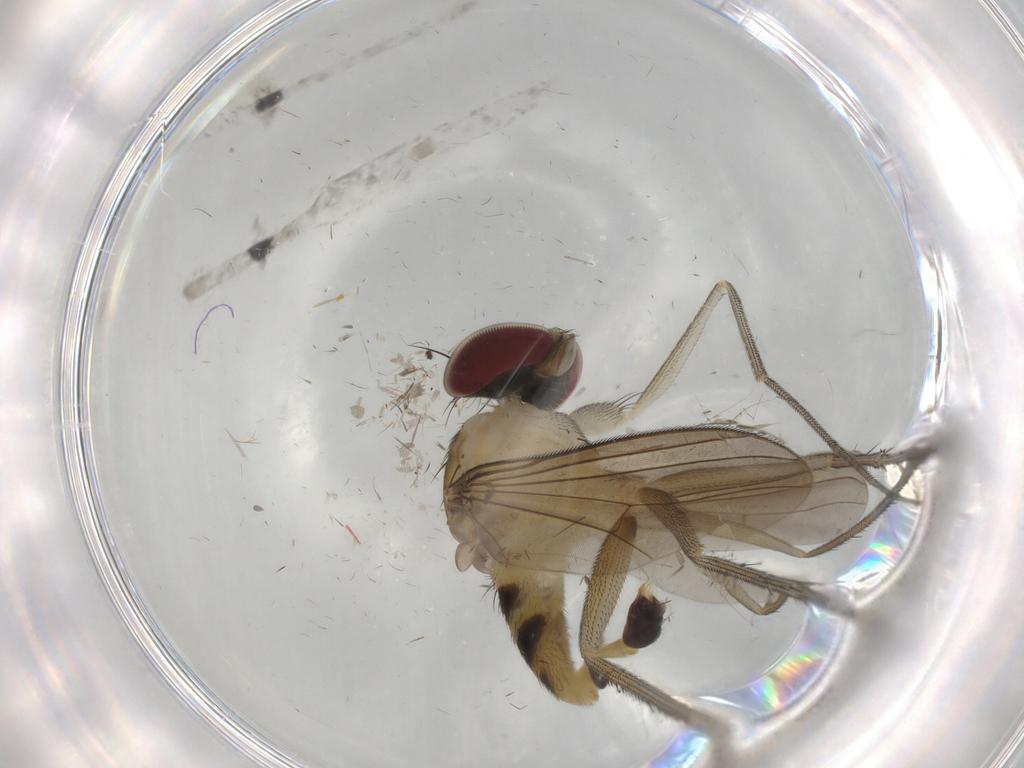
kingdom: Animalia
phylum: Arthropoda
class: Insecta
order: Diptera
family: Dolichopodidae
